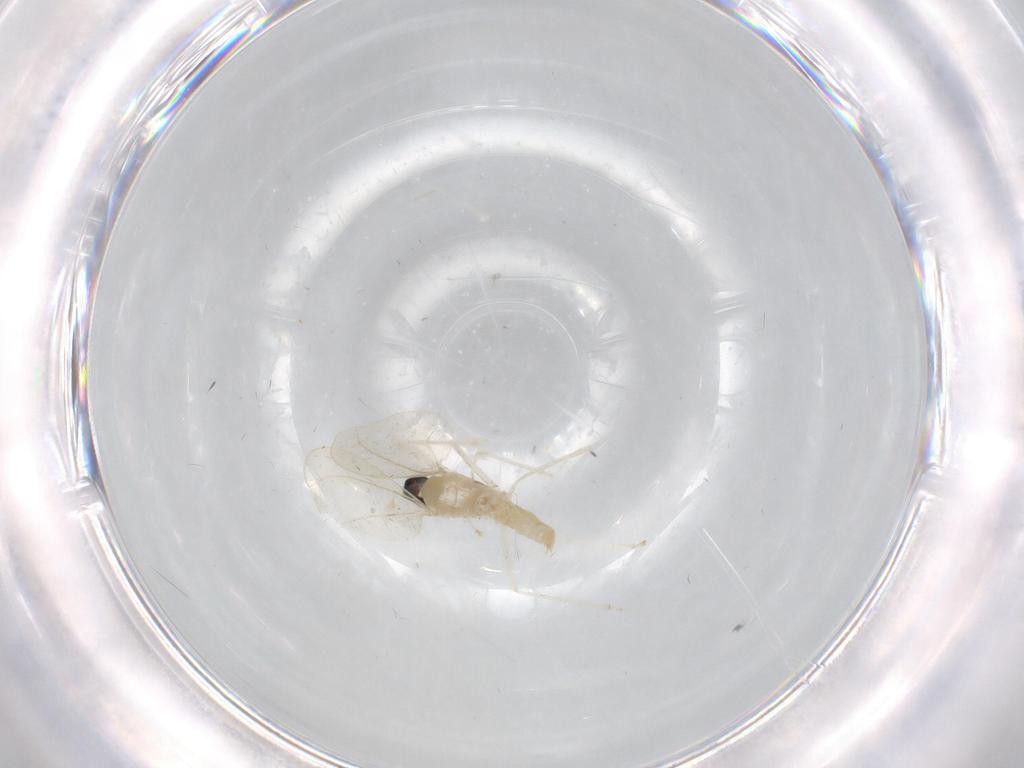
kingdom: Animalia
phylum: Arthropoda
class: Insecta
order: Diptera
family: Cecidomyiidae
